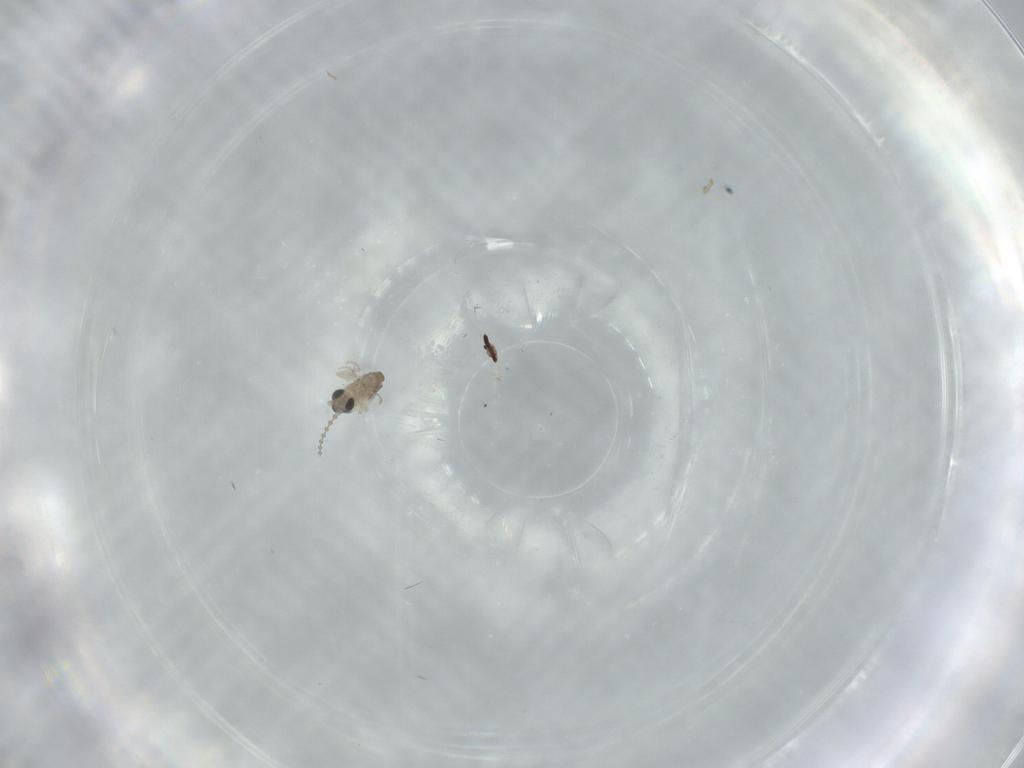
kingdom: Animalia
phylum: Arthropoda
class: Insecta
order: Diptera
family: Cecidomyiidae
